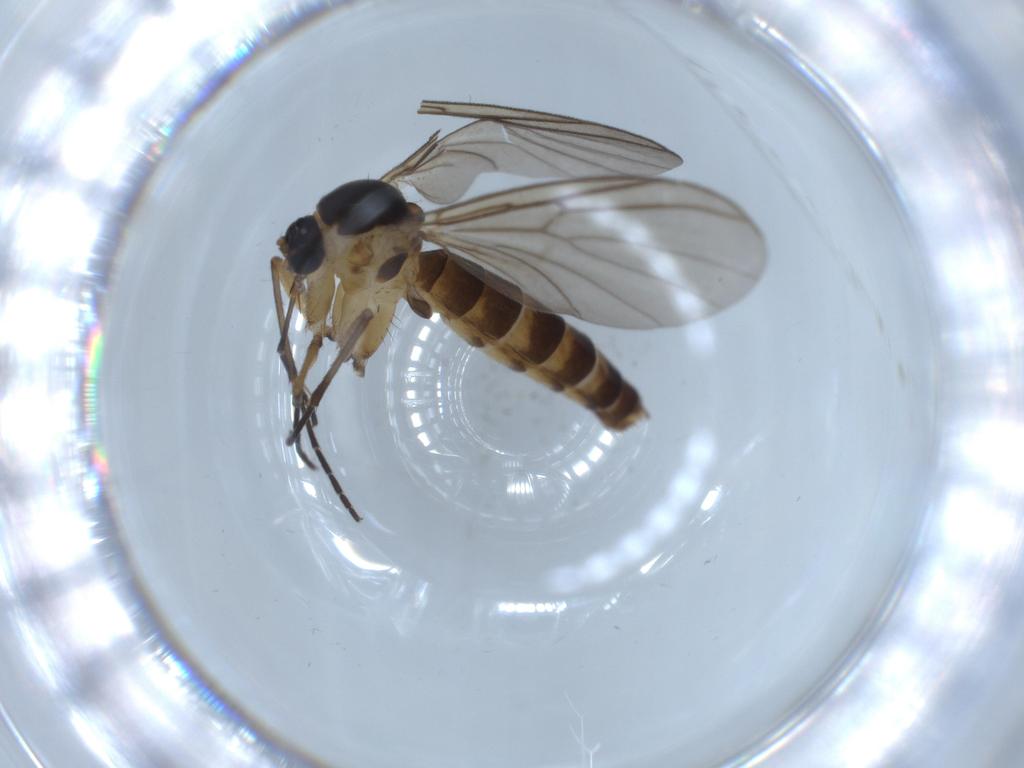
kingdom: Animalia
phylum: Arthropoda
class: Insecta
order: Diptera
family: Mycetophilidae
